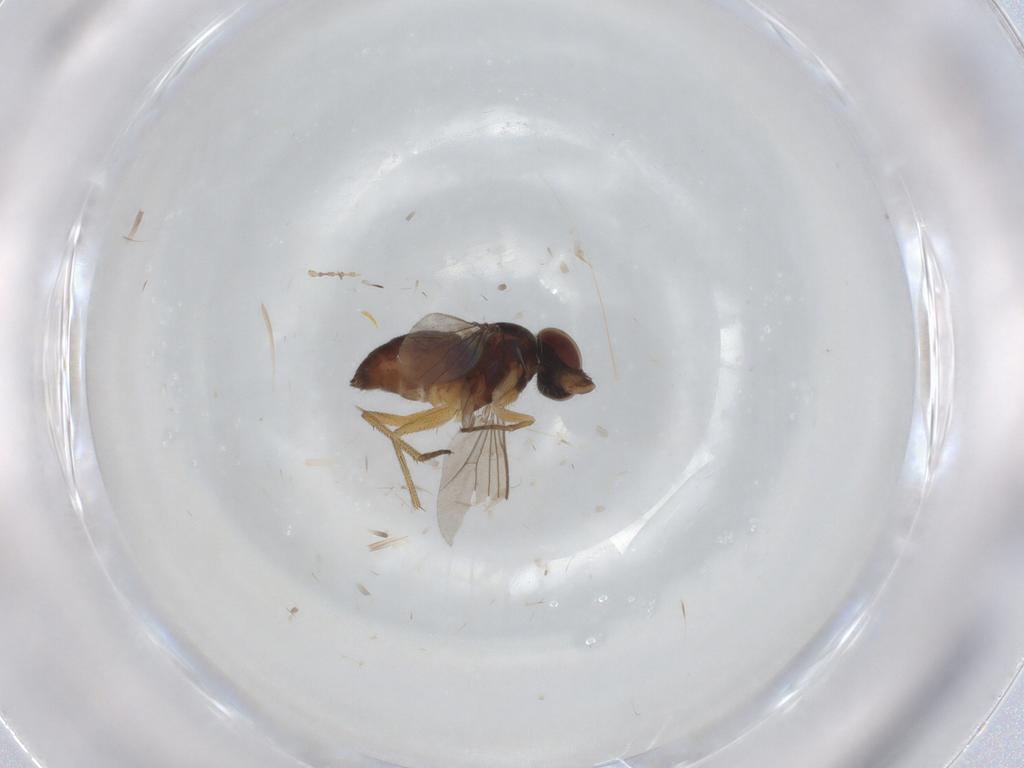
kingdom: Animalia
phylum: Arthropoda
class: Insecta
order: Diptera
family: Dolichopodidae
